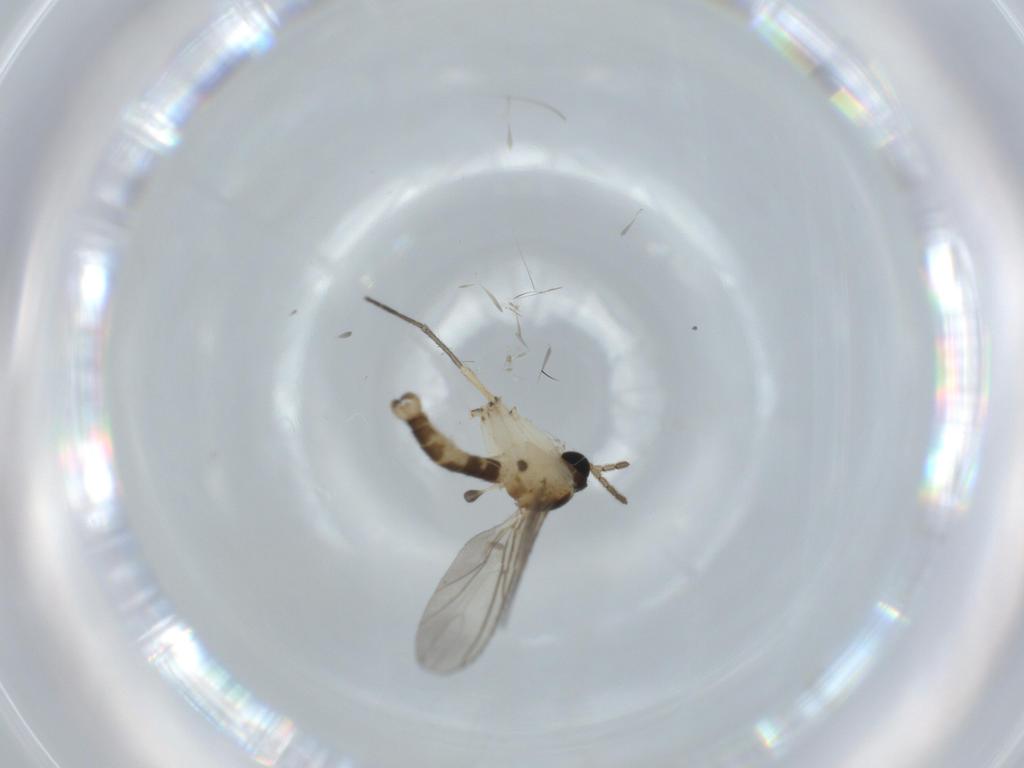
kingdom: Animalia
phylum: Arthropoda
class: Insecta
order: Diptera
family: Sciaridae
